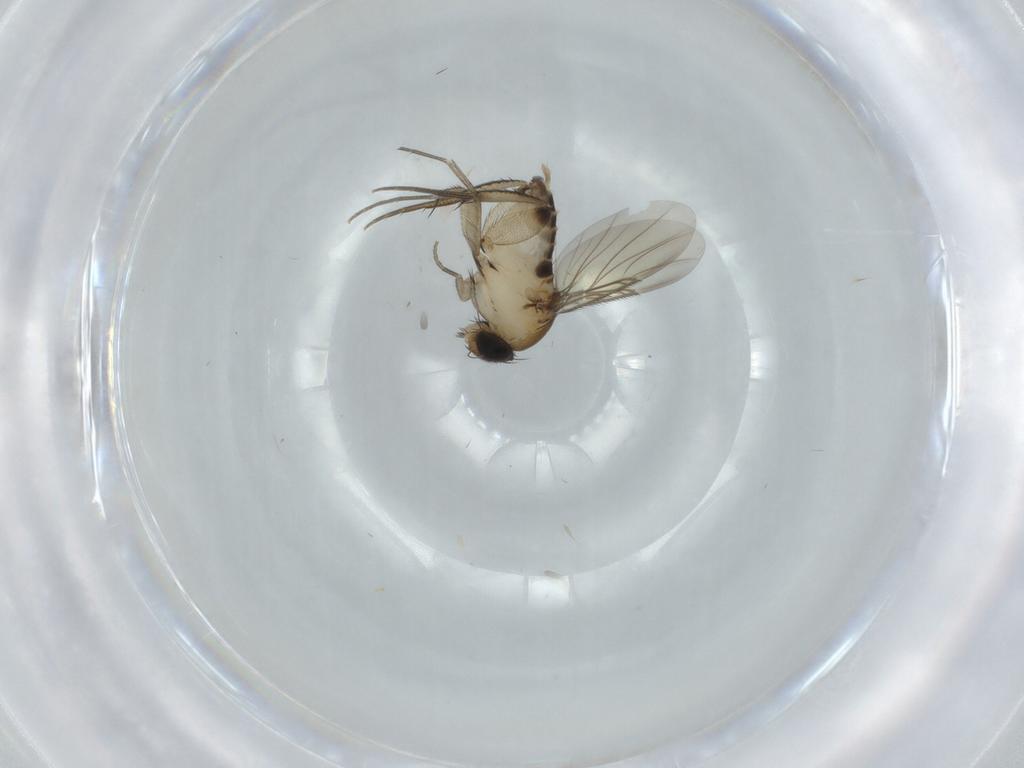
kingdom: Animalia
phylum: Arthropoda
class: Insecta
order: Diptera
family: Phoridae
